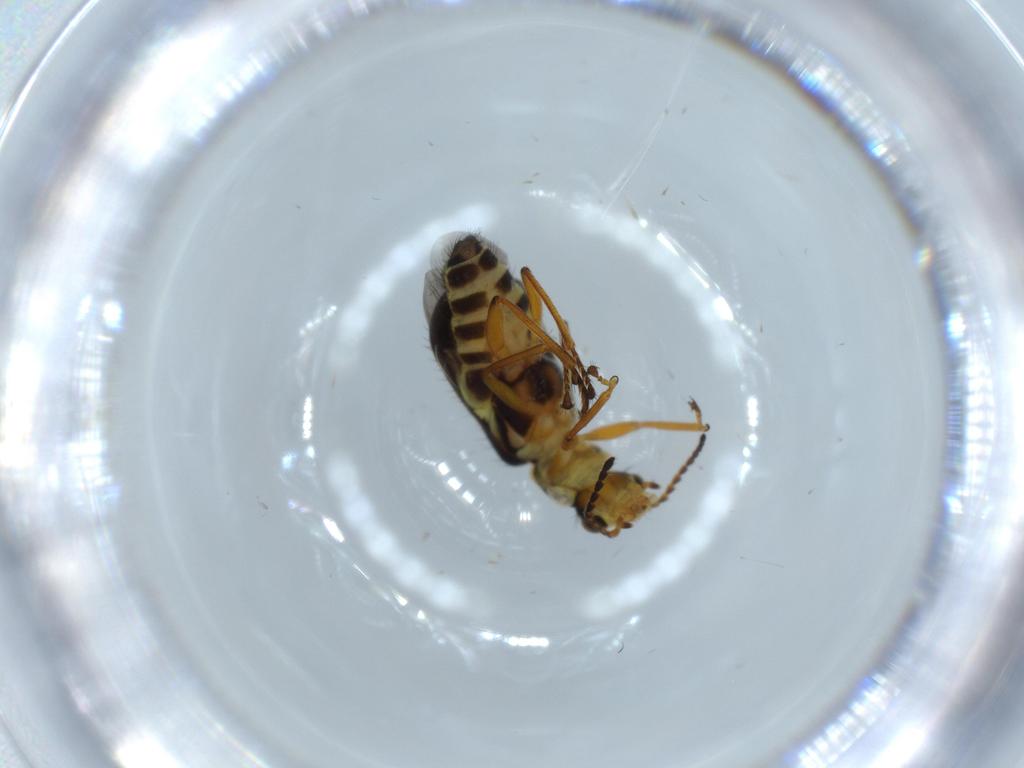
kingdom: Animalia
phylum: Arthropoda
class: Insecta
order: Coleoptera
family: Melyridae
